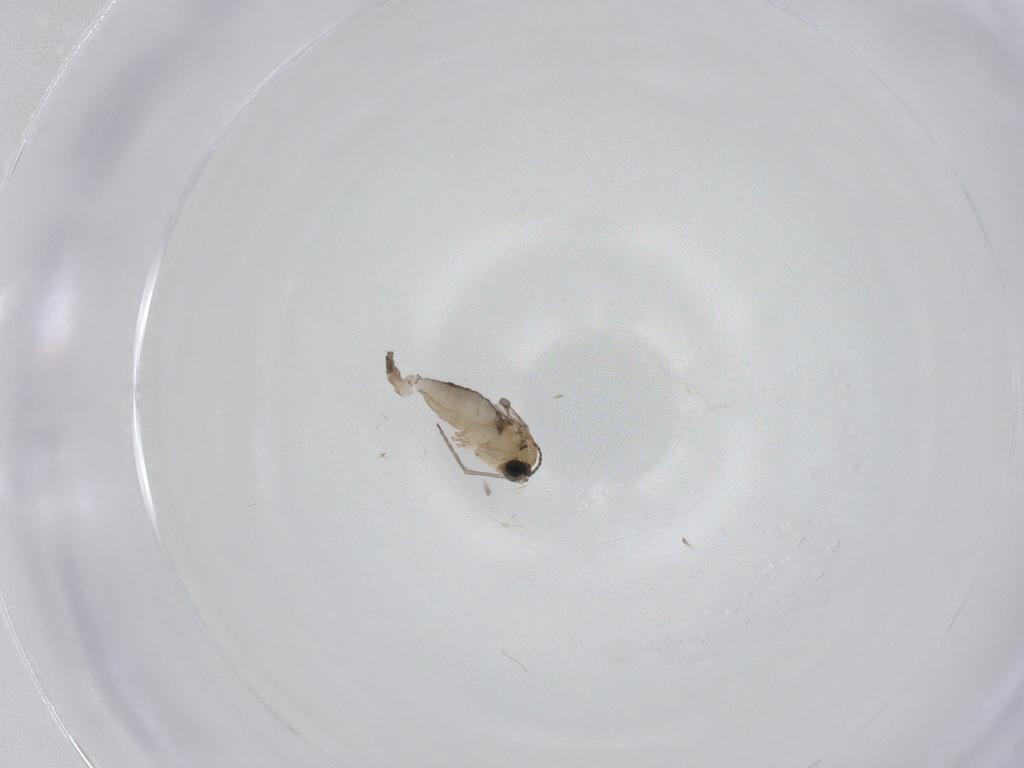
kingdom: Animalia
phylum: Arthropoda
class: Insecta
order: Diptera
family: Sciaridae
